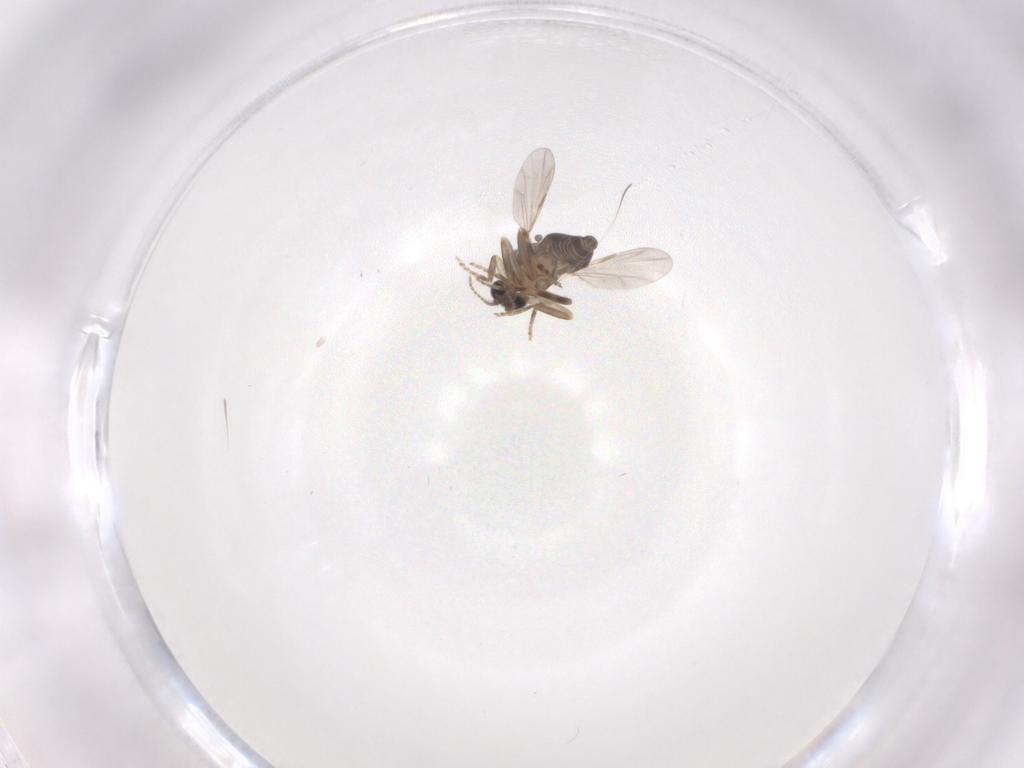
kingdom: Animalia
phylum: Arthropoda
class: Insecta
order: Diptera
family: Ceratopogonidae
